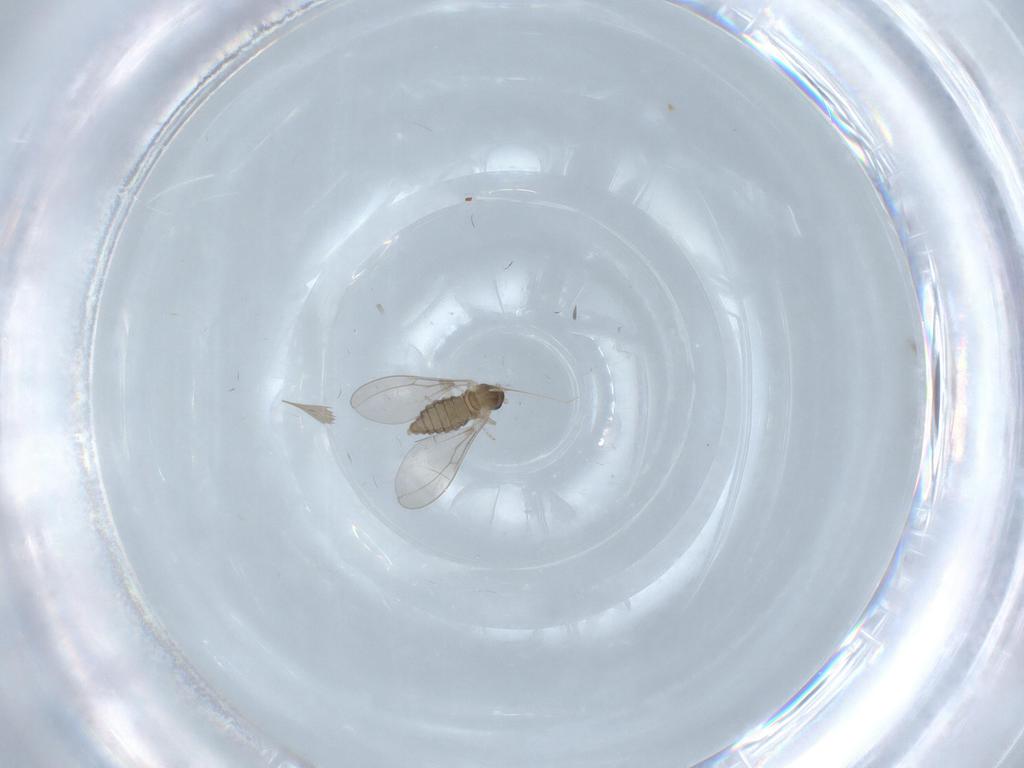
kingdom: Animalia
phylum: Arthropoda
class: Insecta
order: Diptera
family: Cecidomyiidae
